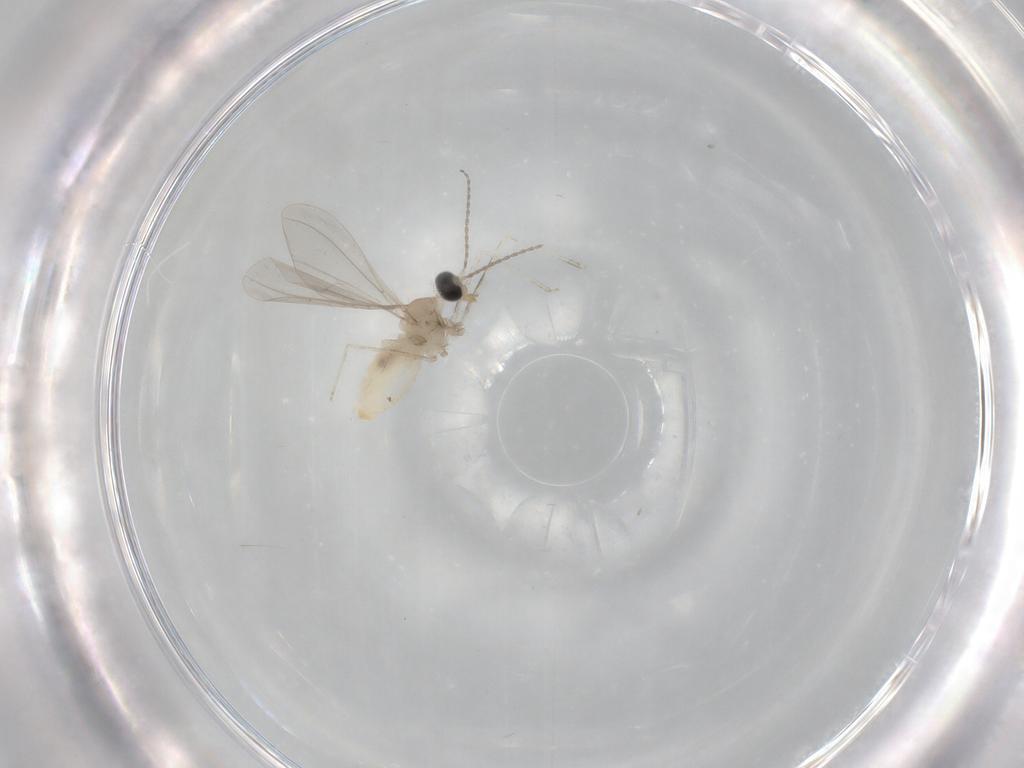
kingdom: Animalia
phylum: Arthropoda
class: Insecta
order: Diptera
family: Cecidomyiidae
